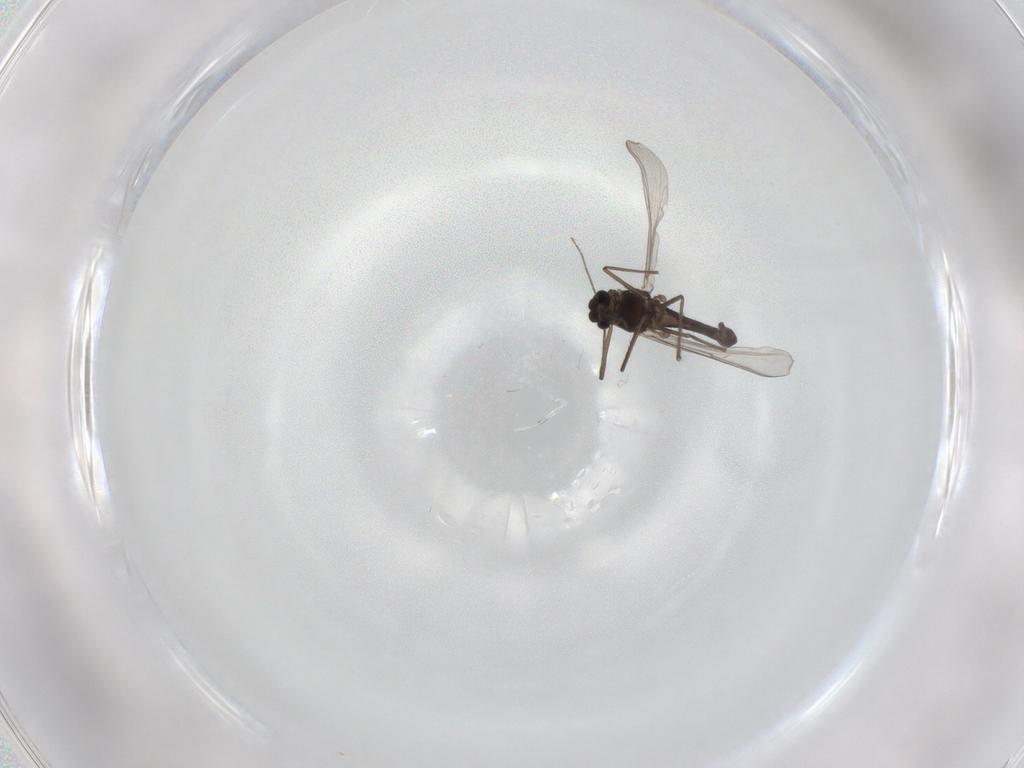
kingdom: Animalia
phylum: Arthropoda
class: Insecta
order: Diptera
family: Chironomidae
